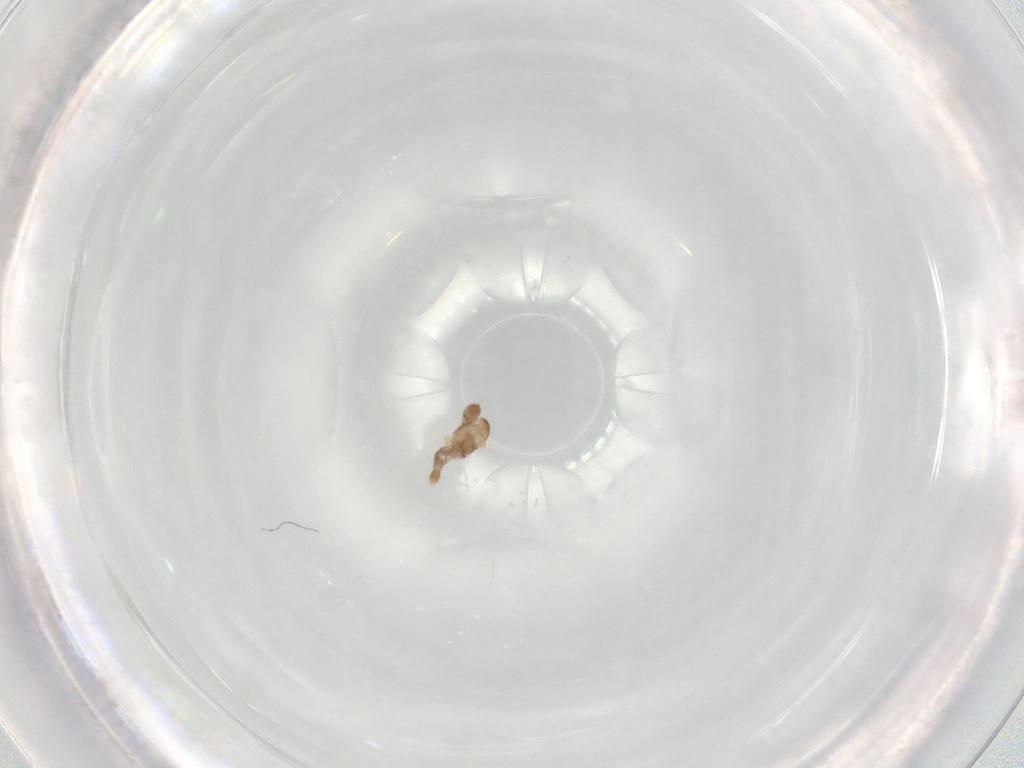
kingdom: Animalia
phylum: Arthropoda
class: Insecta
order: Diptera
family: Cecidomyiidae
